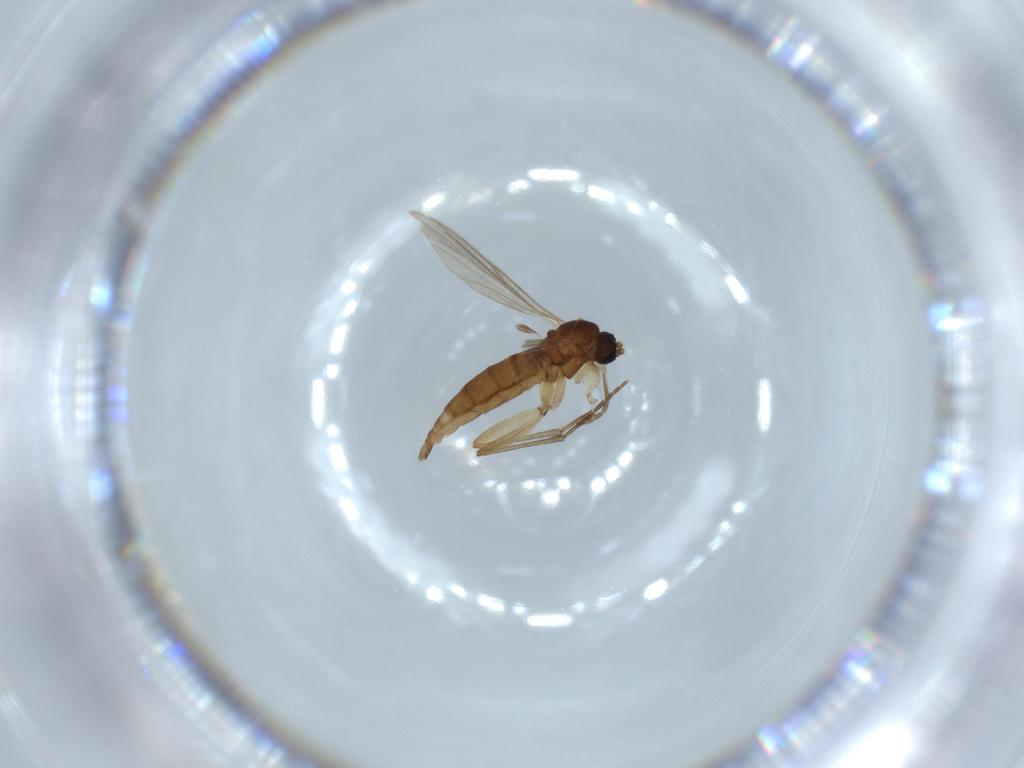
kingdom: Animalia
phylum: Arthropoda
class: Insecta
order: Diptera
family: Sciaridae
